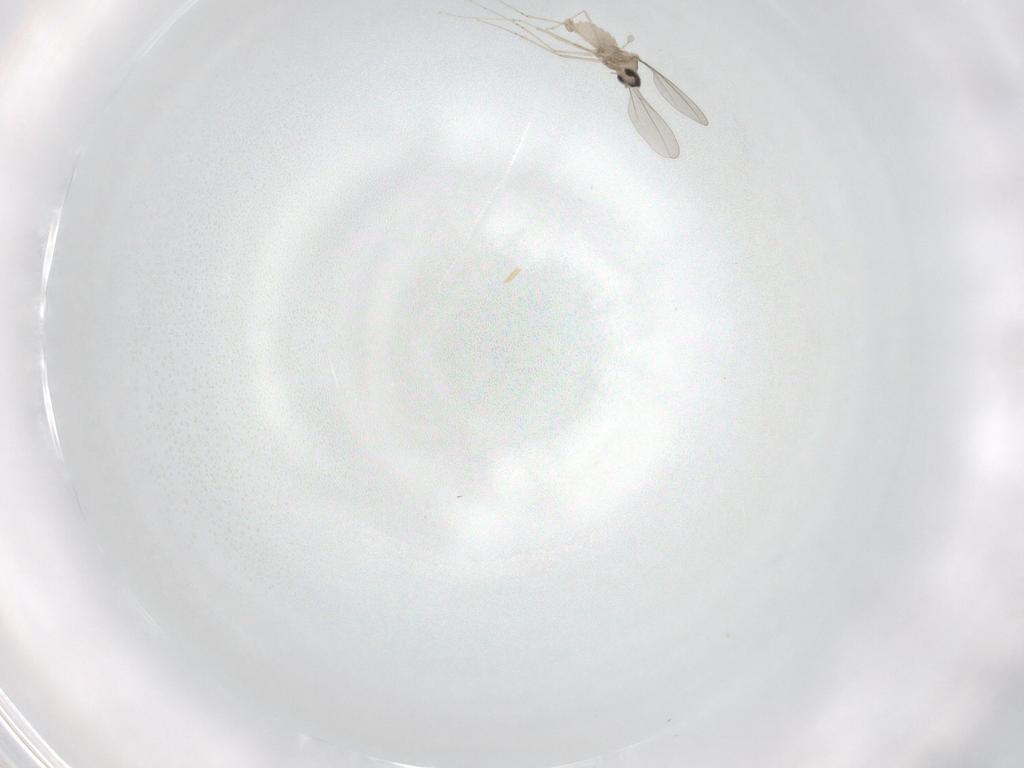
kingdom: Animalia
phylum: Arthropoda
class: Insecta
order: Diptera
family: Cecidomyiidae
